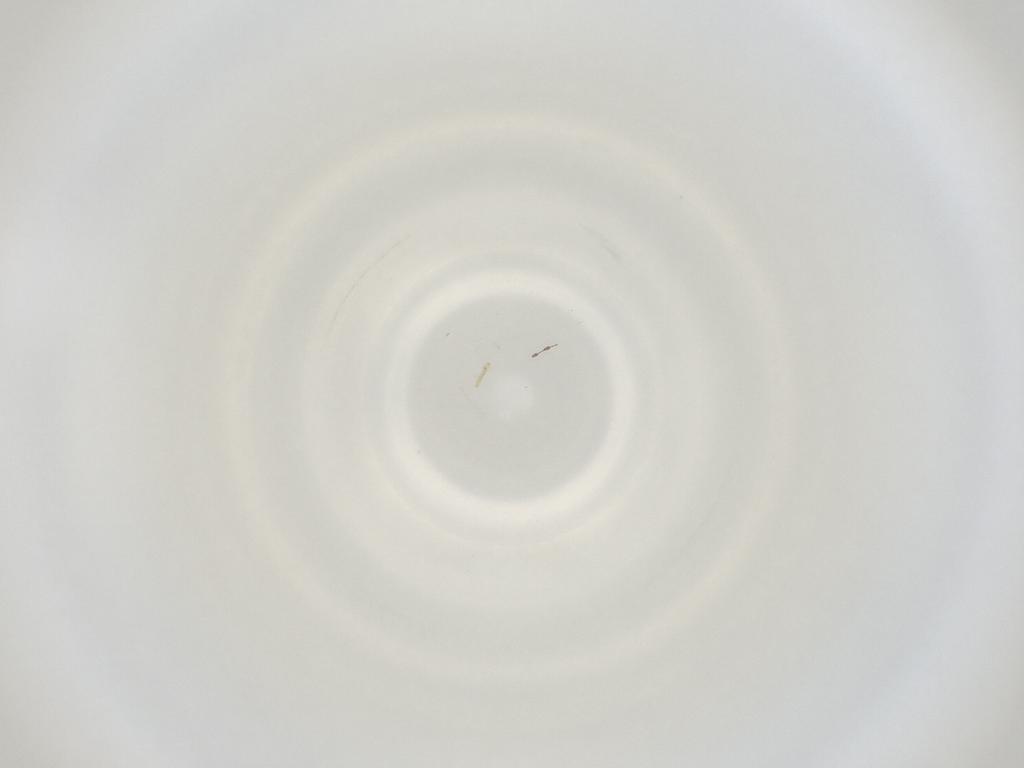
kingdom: Animalia
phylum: Arthropoda
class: Insecta
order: Diptera
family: Cecidomyiidae
